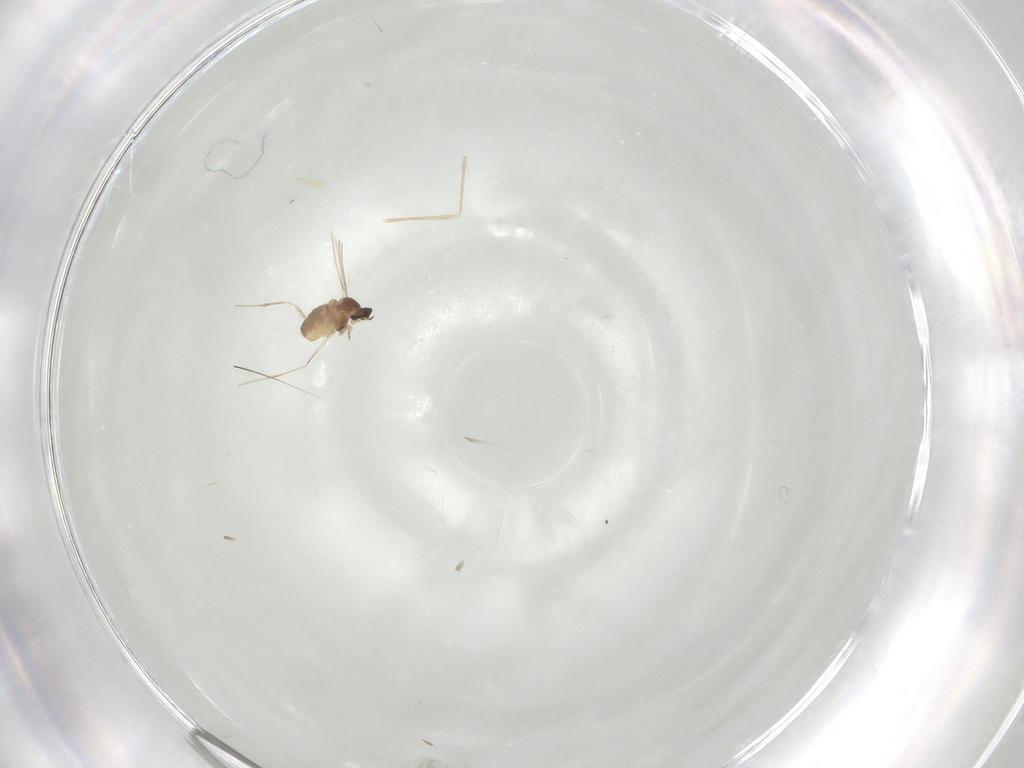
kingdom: Animalia
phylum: Arthropoda
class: Insecta
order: Diptera
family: Cecidomyiidae
